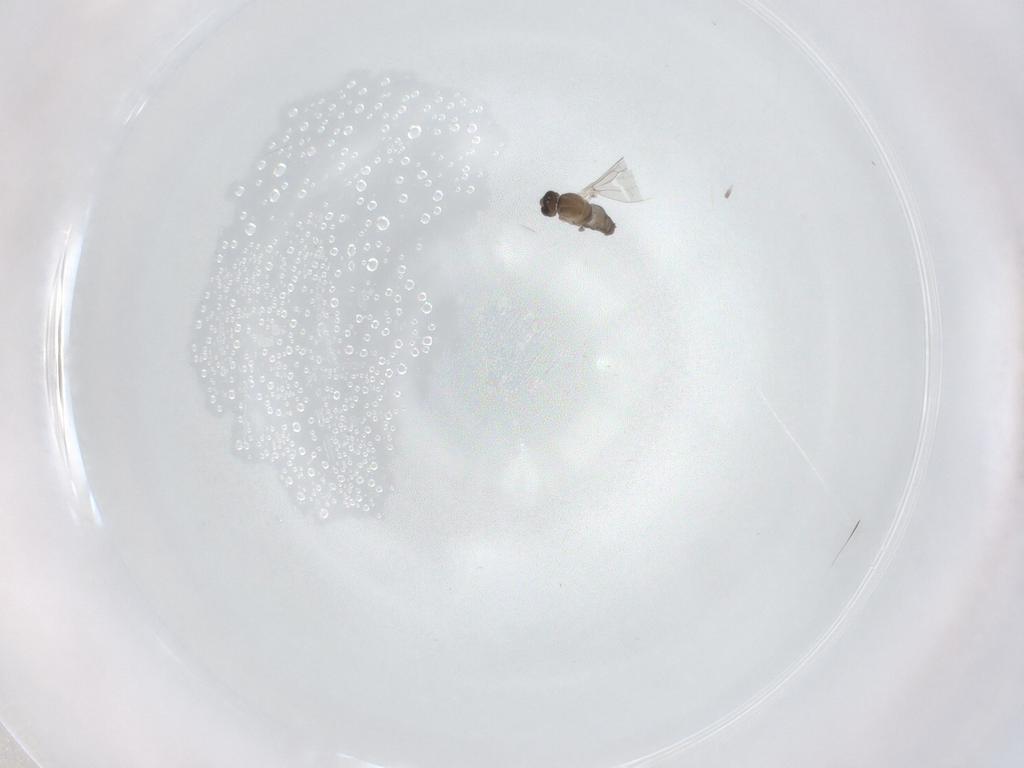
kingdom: Animalia
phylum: Arthropoda
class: Insecta
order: Diptera
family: Cecidomyiidae
